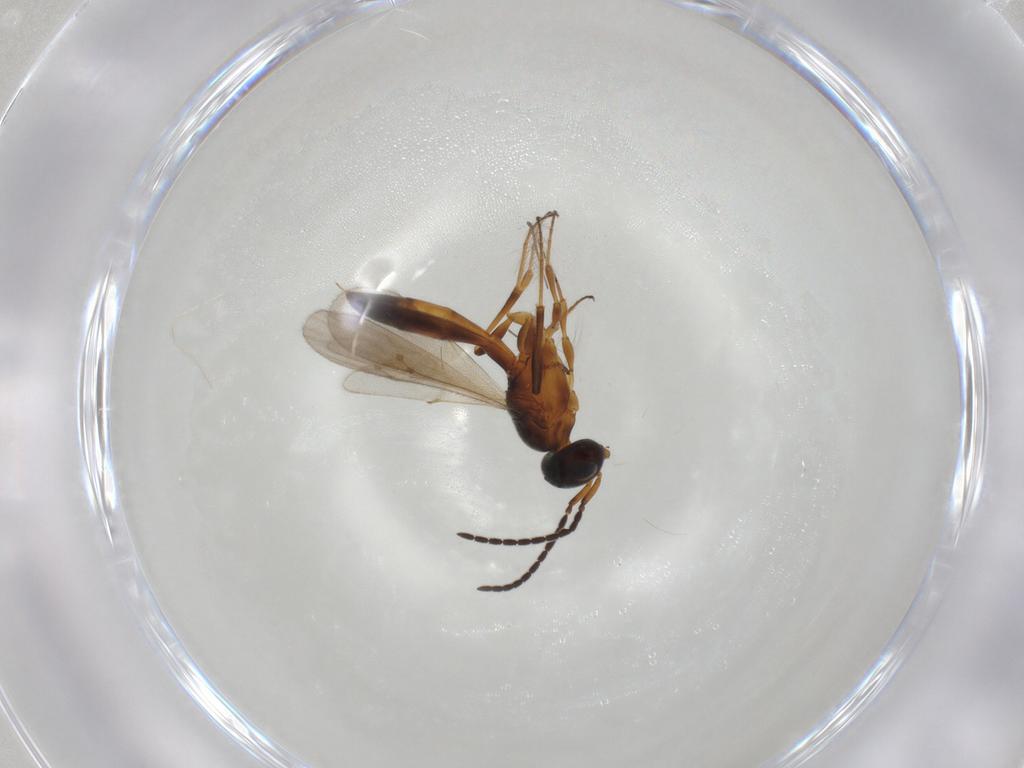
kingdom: Animalia
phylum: Arthropoda
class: Insecta
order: Hymenoptera
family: Scelionidae
